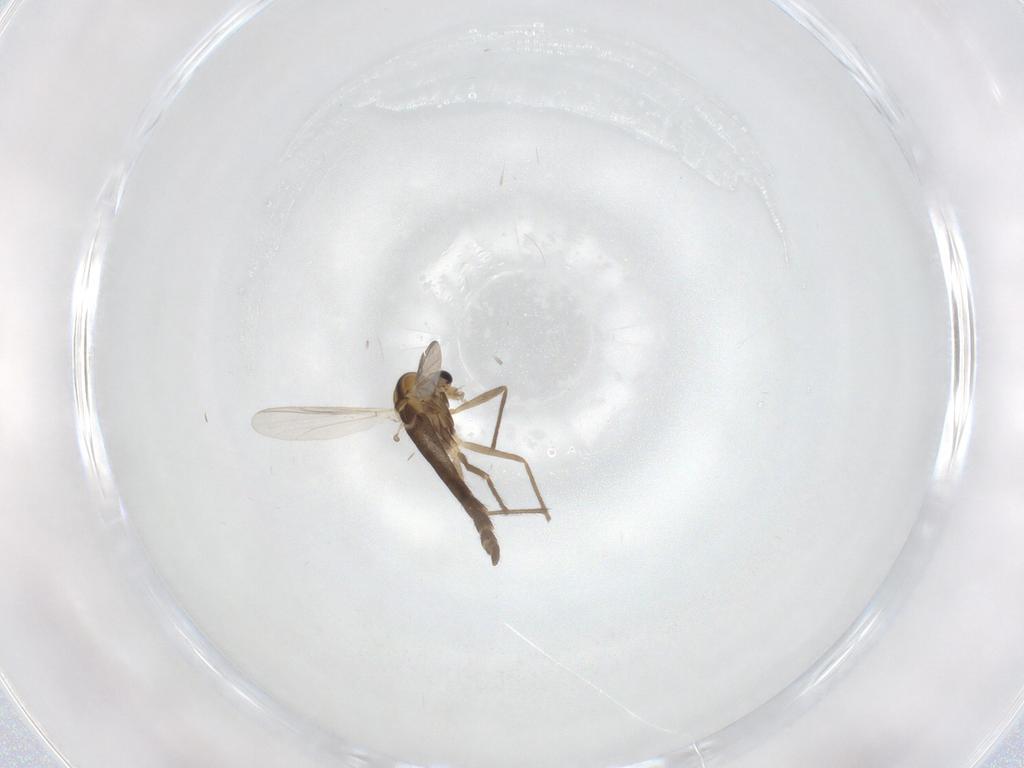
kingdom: Animalia
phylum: Arthropoda
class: Insecta
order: Diptera
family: Chironomidae
